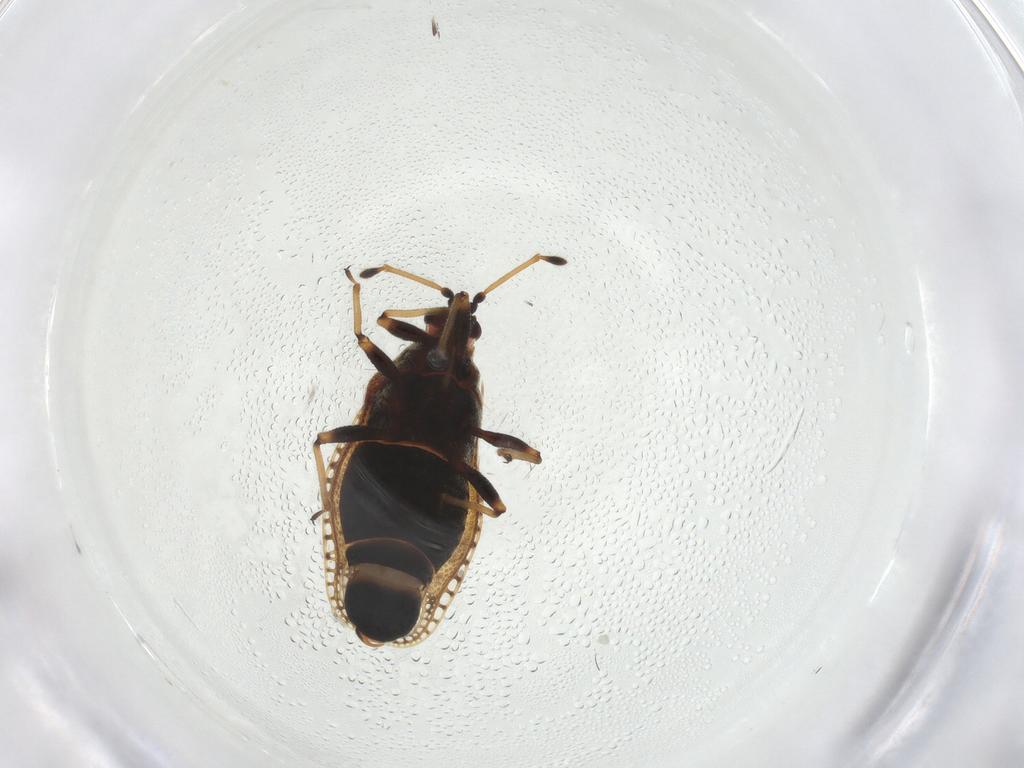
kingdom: Animalia
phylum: Arthropoda
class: Insecta
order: Hemiptera
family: Tingidae
